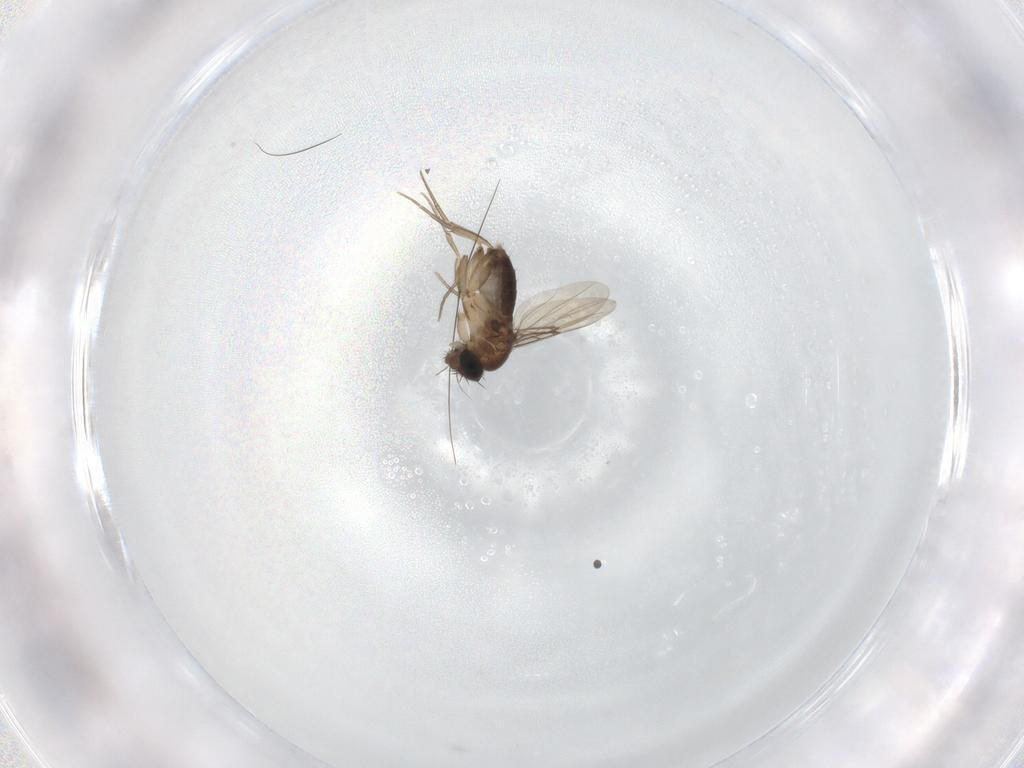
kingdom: Animalia
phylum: Arthropoda
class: Insecta
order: Diptera
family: Phoridae
